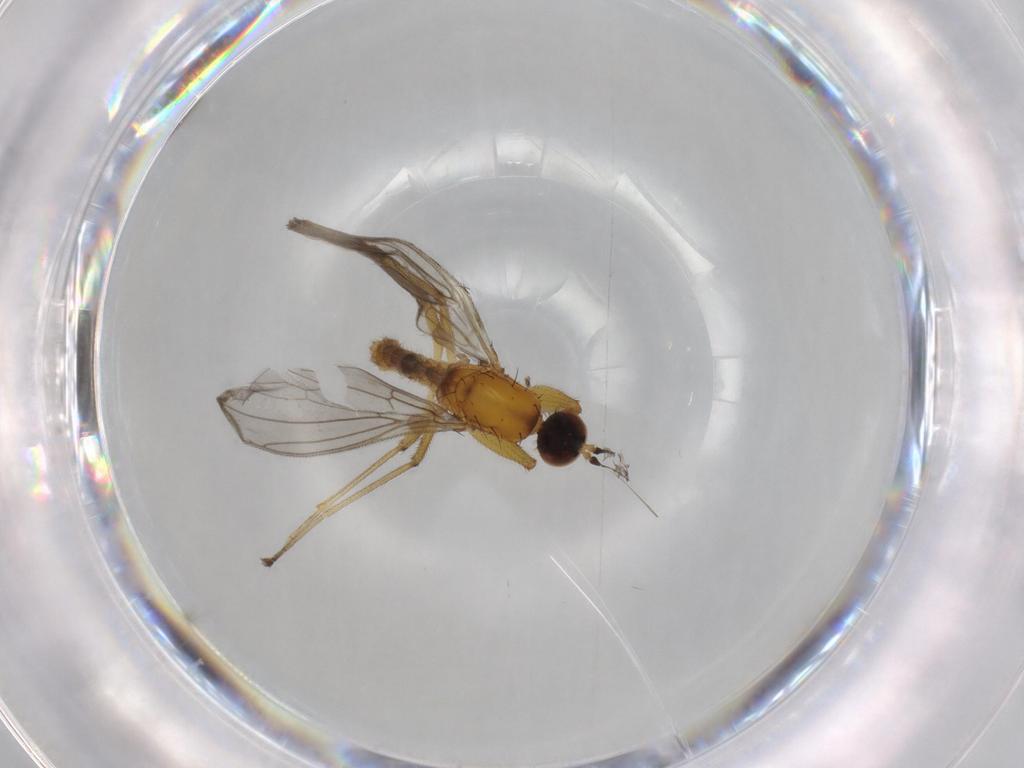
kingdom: Animalia
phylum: Arthropoda
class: Insecta
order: Diptera
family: Empididae
